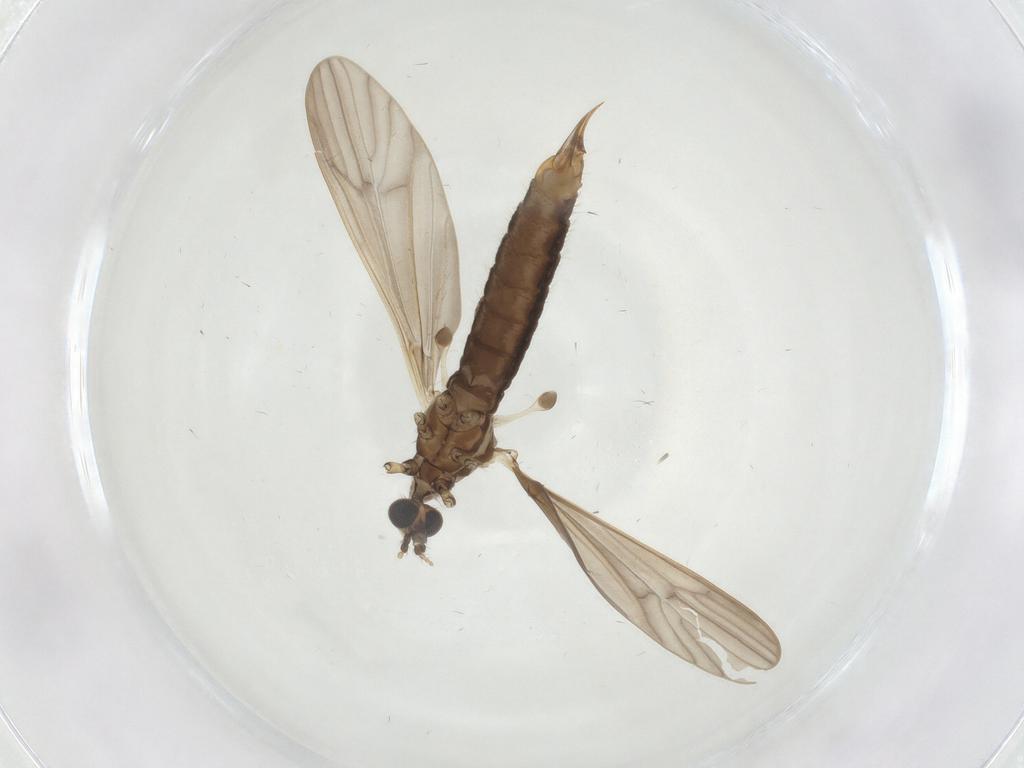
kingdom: Animalia
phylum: Arthropoda
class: Insecta
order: Diptera
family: Limoniidae
